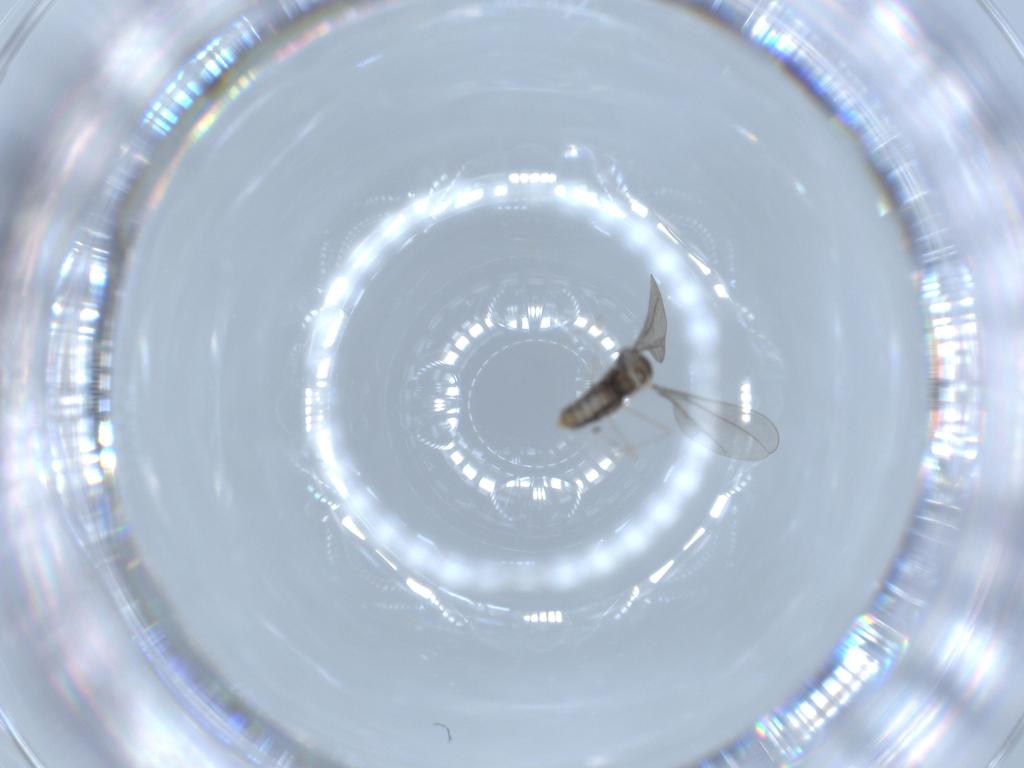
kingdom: Animalia
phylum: Arthropoda
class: Insecta
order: Diptera
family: Cecidomyiidae
